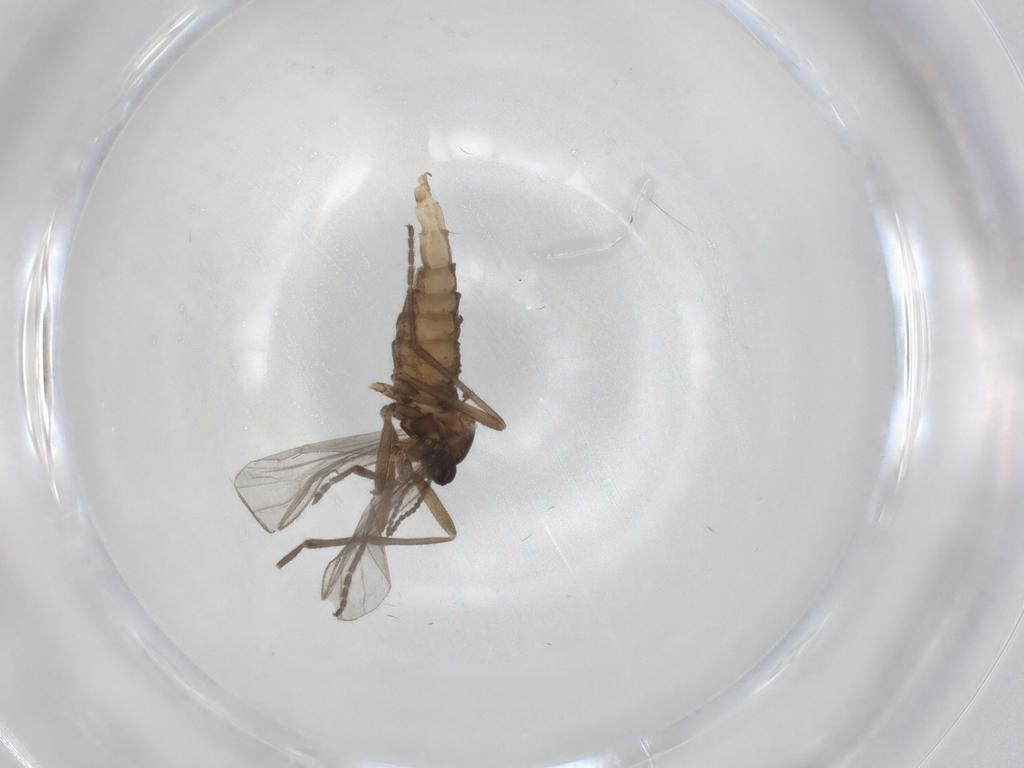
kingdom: Animalia
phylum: Arthropoda
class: Insecta
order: Diptera
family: Cecidomyiidae
